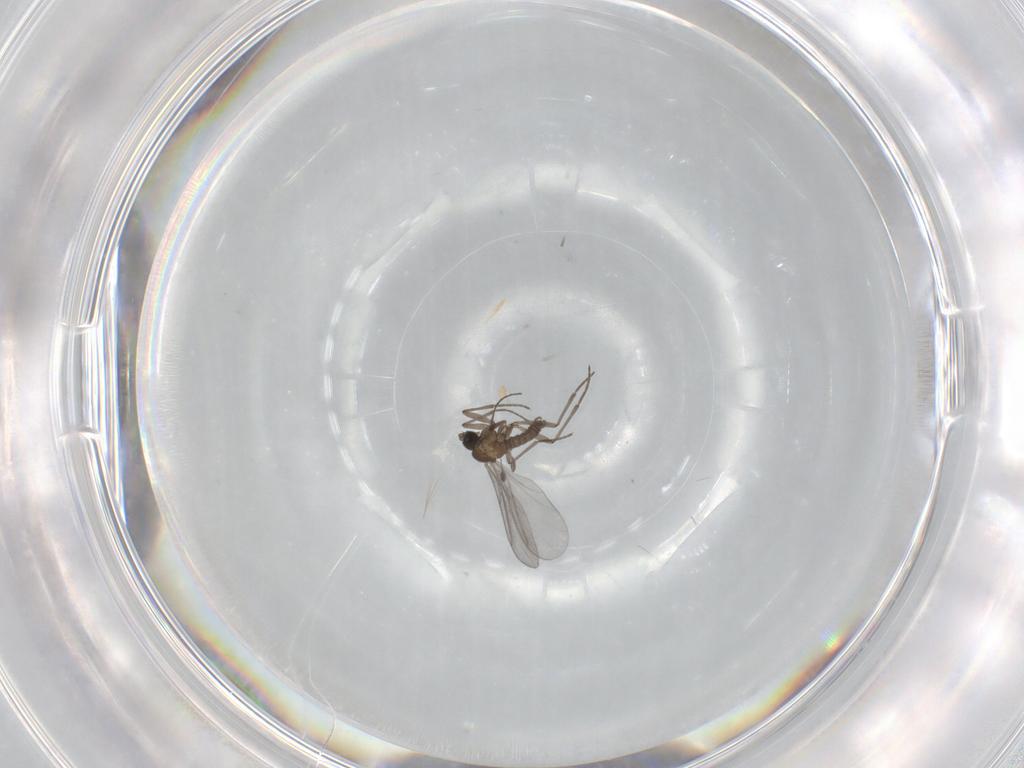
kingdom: Animalia
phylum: Arthropoda
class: Insecta
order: Diptera
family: Limoniidae
